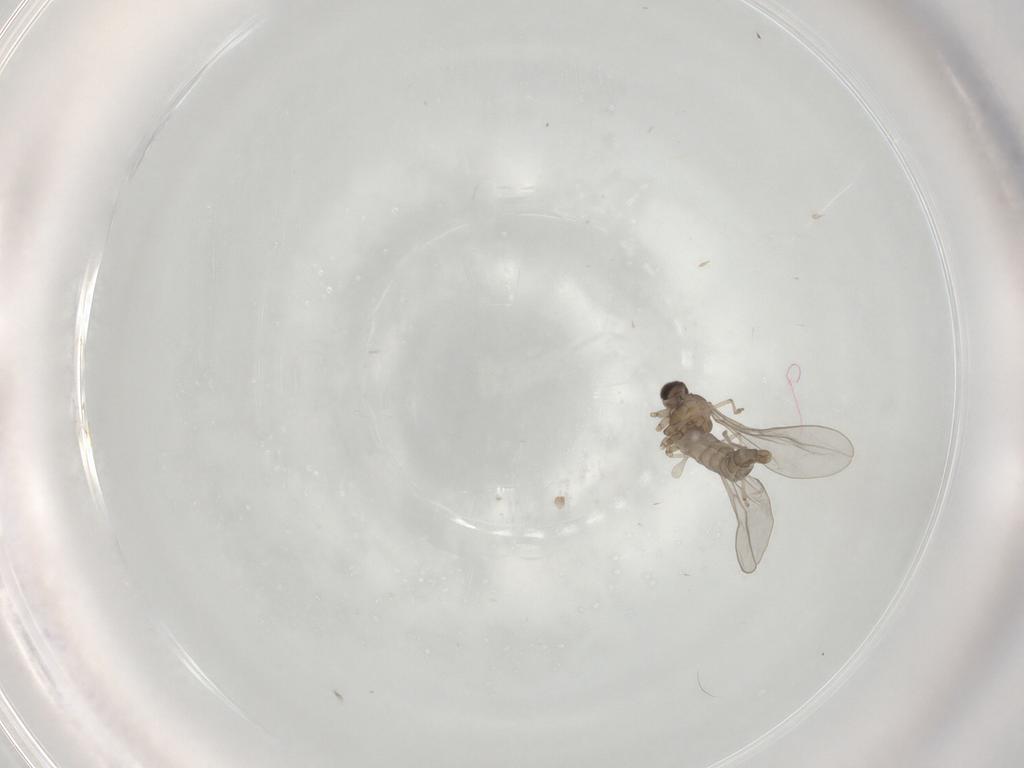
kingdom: Animalia
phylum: Arthropoda
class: Insecta
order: Diptera
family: Cecidomyiidae
